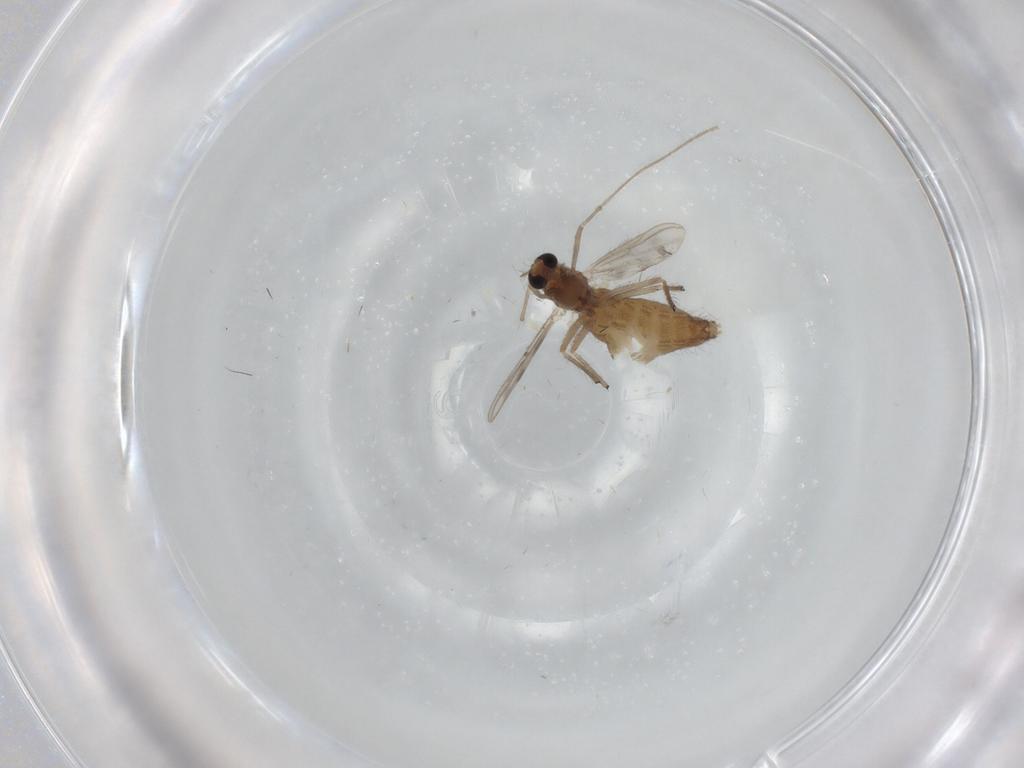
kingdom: Animalia
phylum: Arthropoda
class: Insecta
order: Diptera
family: Chironomidae
